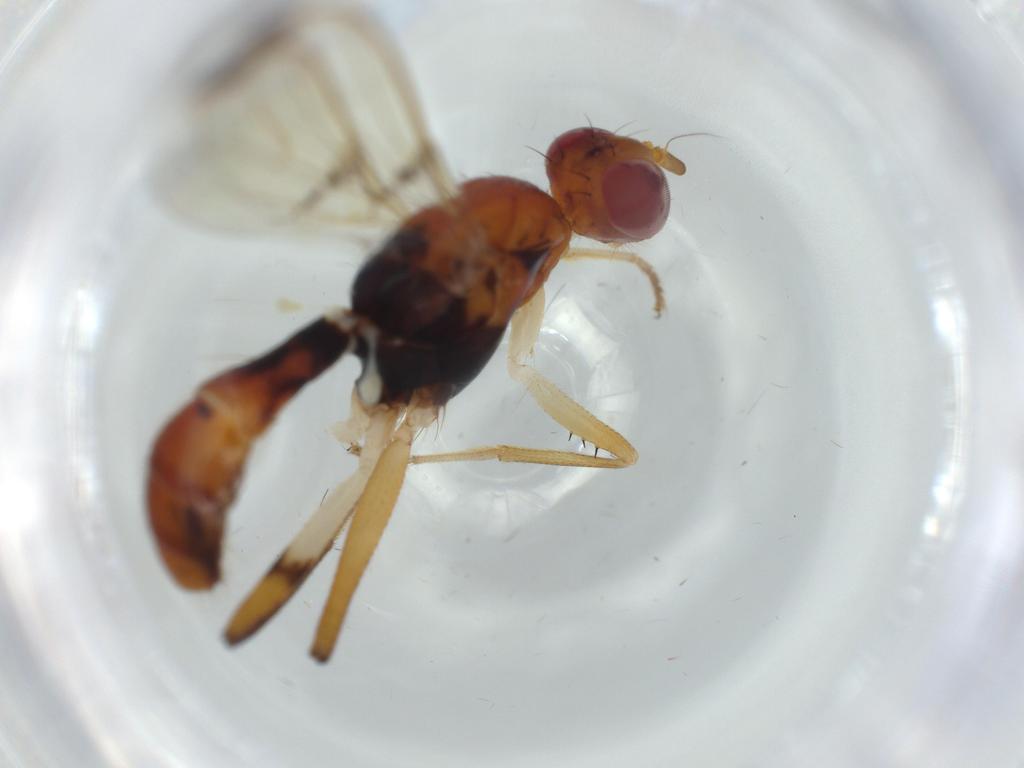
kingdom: Animalia
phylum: Arthropoda
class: Insecta
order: Diptera
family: Richardiidae
